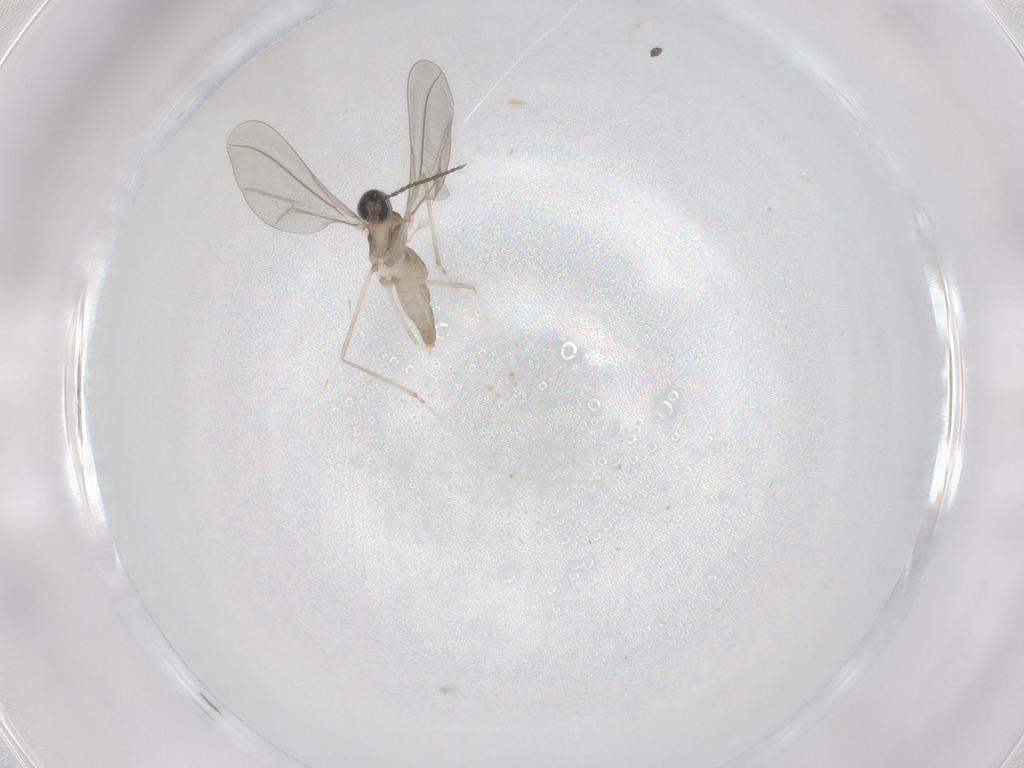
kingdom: Animalia
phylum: Arthropoda
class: Insecta
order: Diptera
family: Cecidomyiidae
